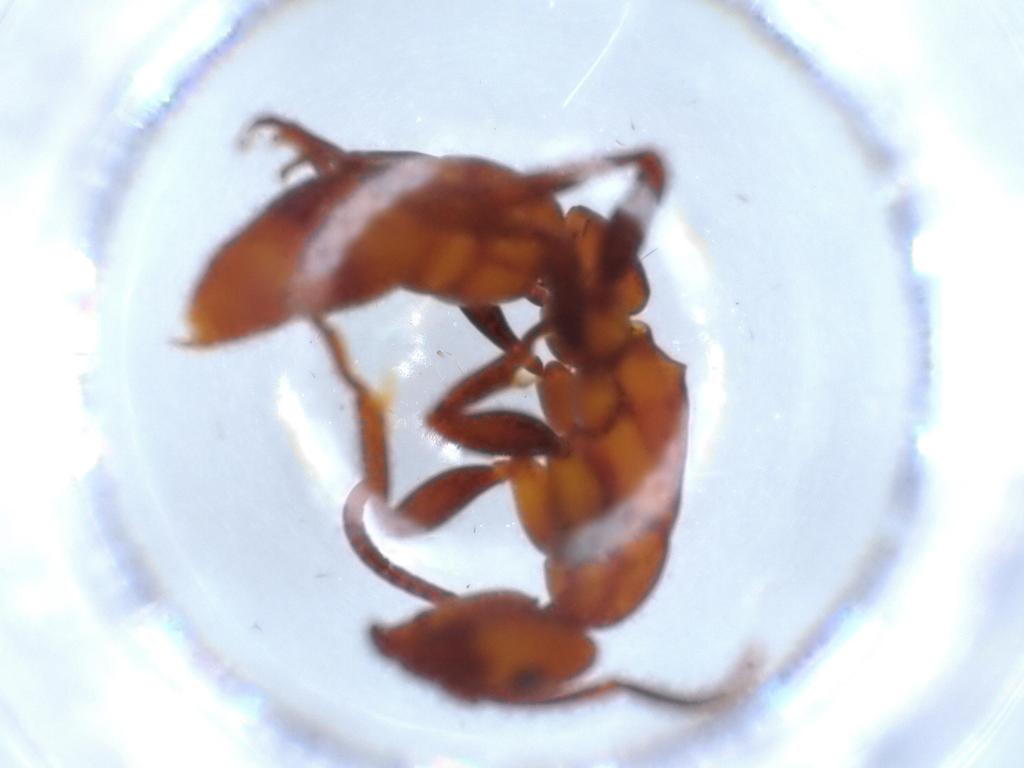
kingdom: Animalia
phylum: Arthropoda
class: Insecta
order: Hymenoptera
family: Formicidae
